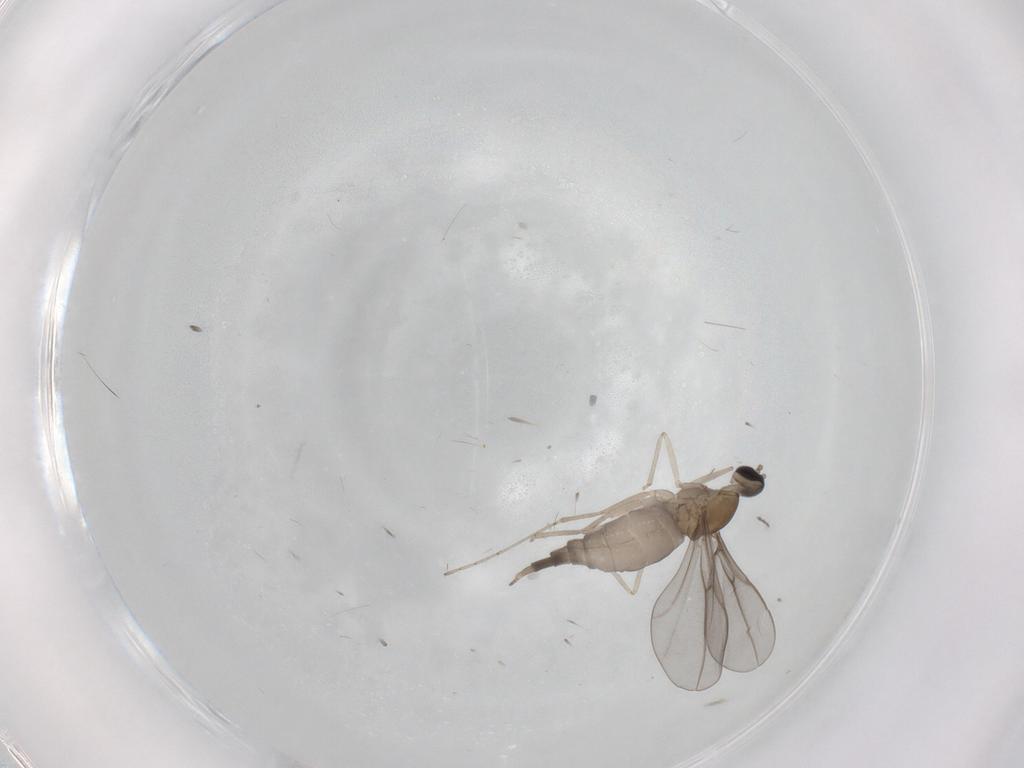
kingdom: Animalia
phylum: Arthropoda
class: Insecta
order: Diptera
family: Cecidomyiidae
